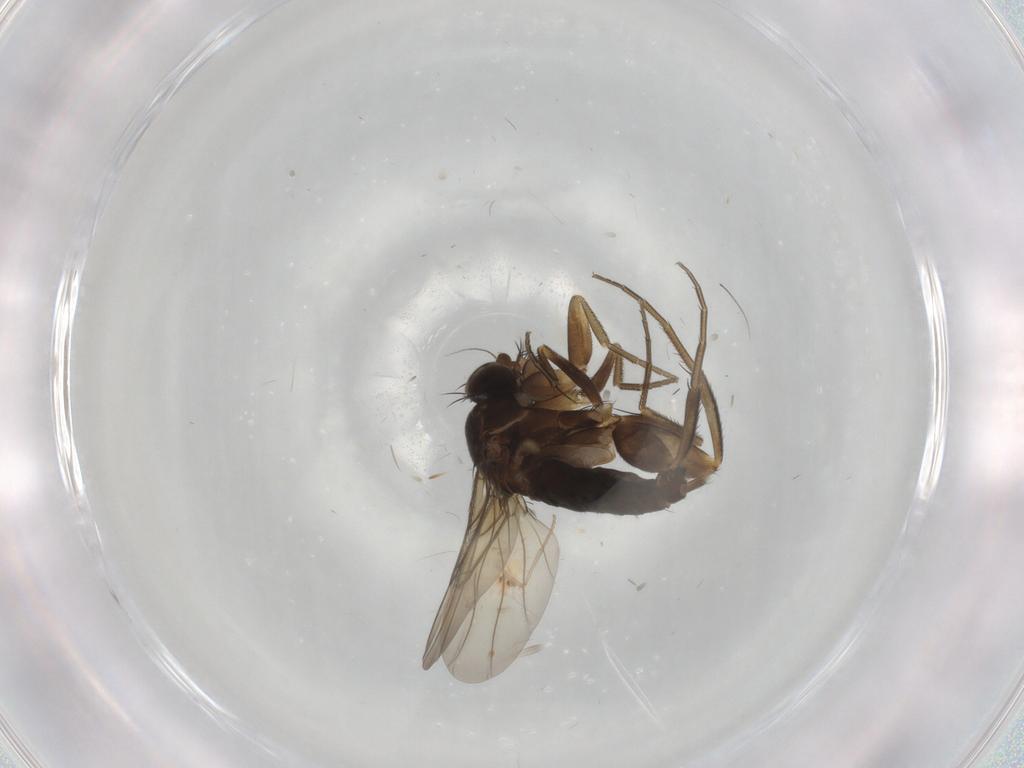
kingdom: Animalia
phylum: Arthropoda
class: Insecta
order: Diptera
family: Phoridae
